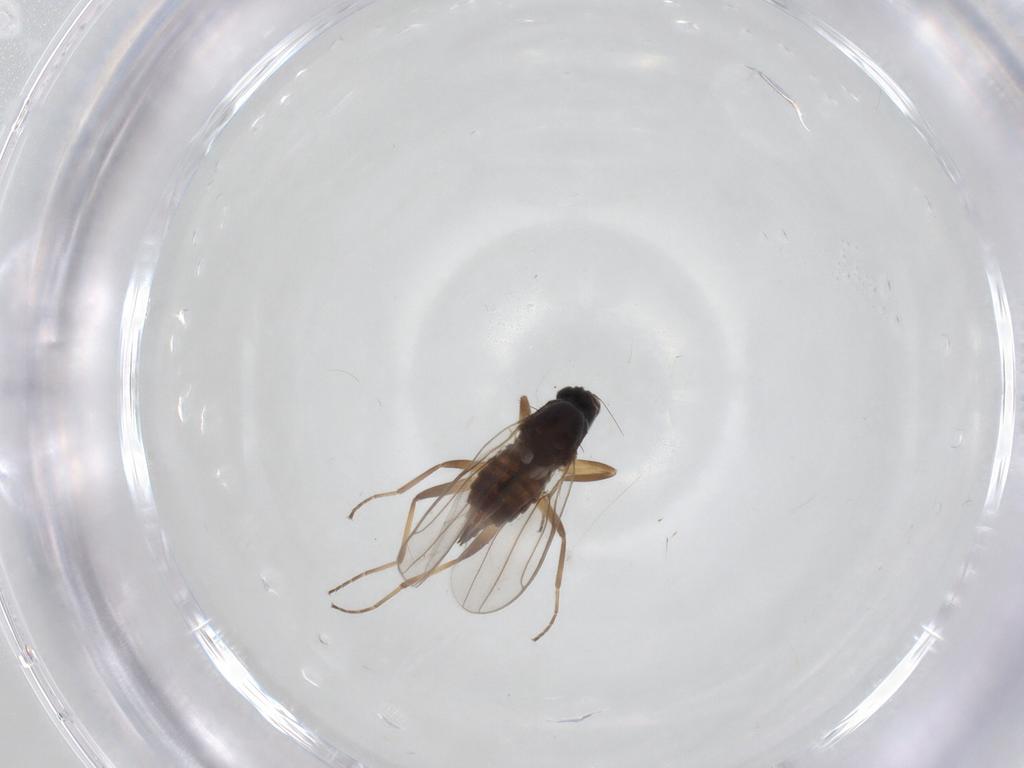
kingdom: Animalia
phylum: Arthropoda
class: Insecta
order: Diptera
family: Hybotidae
